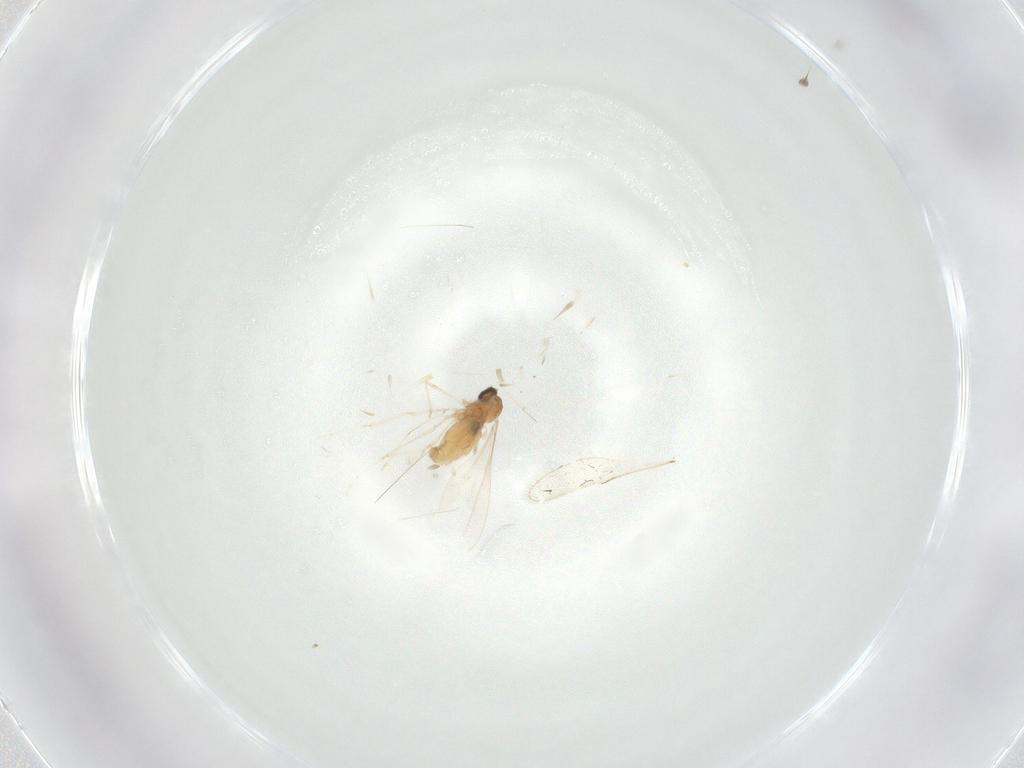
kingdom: Animalia
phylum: Arthropoda
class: Insecta
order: Diptera
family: Cecidomyiidae
